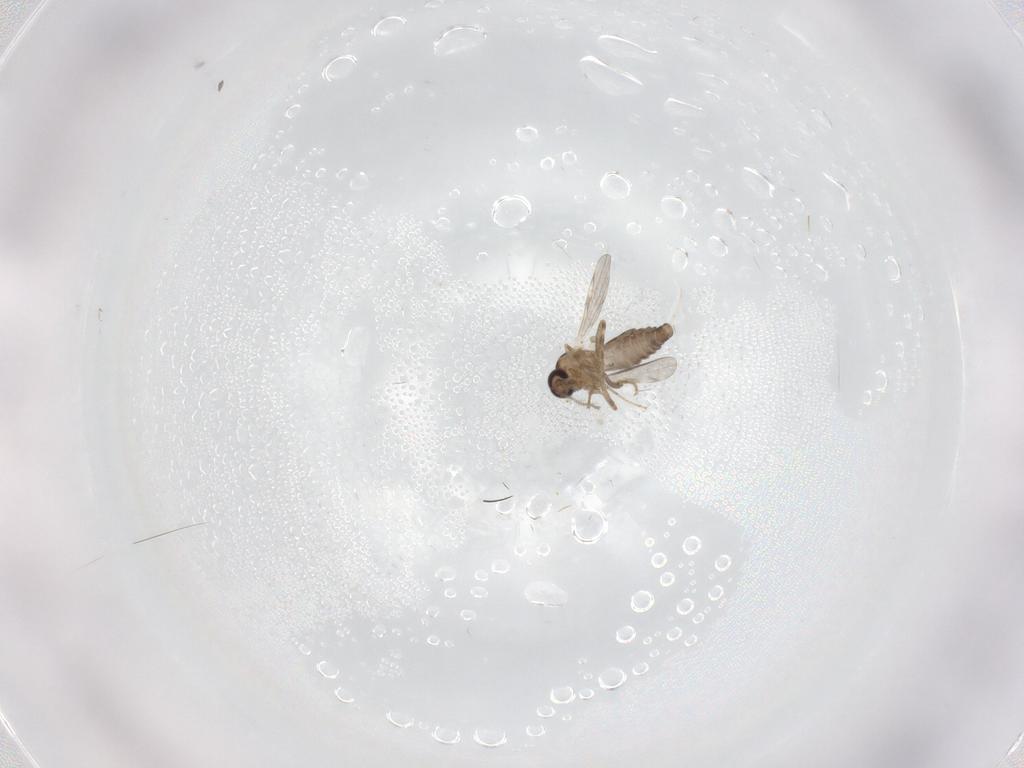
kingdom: Animalia
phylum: Arthropoda
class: Insecta
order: Diptera
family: Ceratopogonidae
